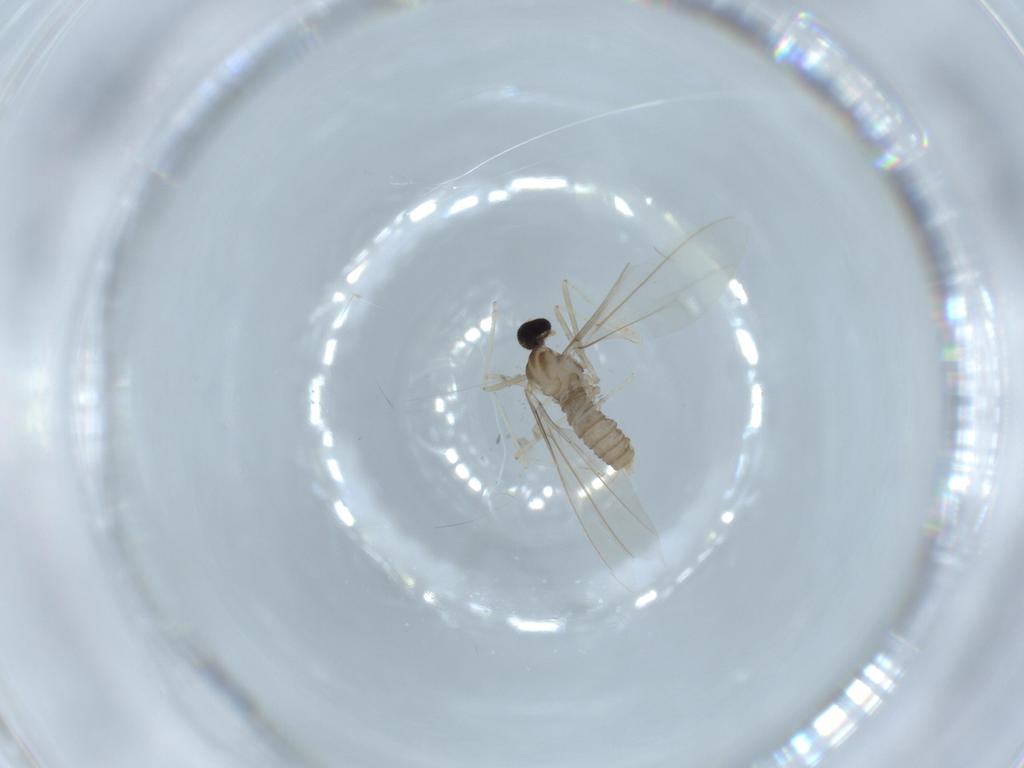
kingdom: Animalia
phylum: Arthropoda
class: Insecta
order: Diptera
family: Cecidomyiidae
